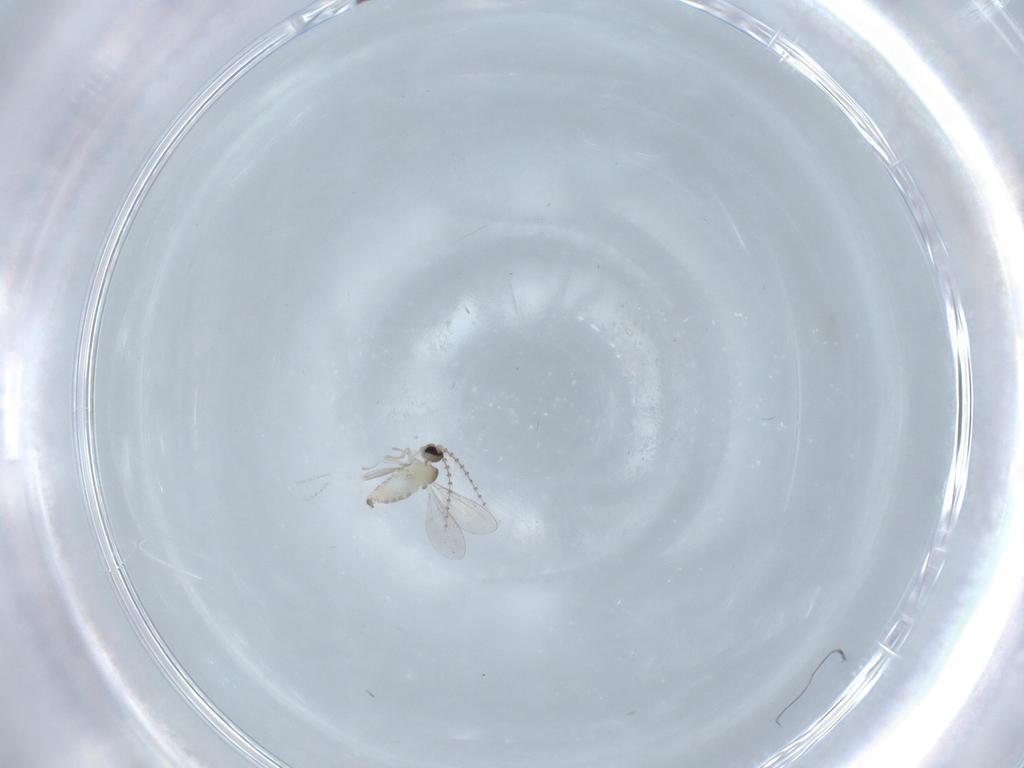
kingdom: Animalia
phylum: Arthropoda
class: Insecta
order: Diptera
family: Cecidomyiidae
